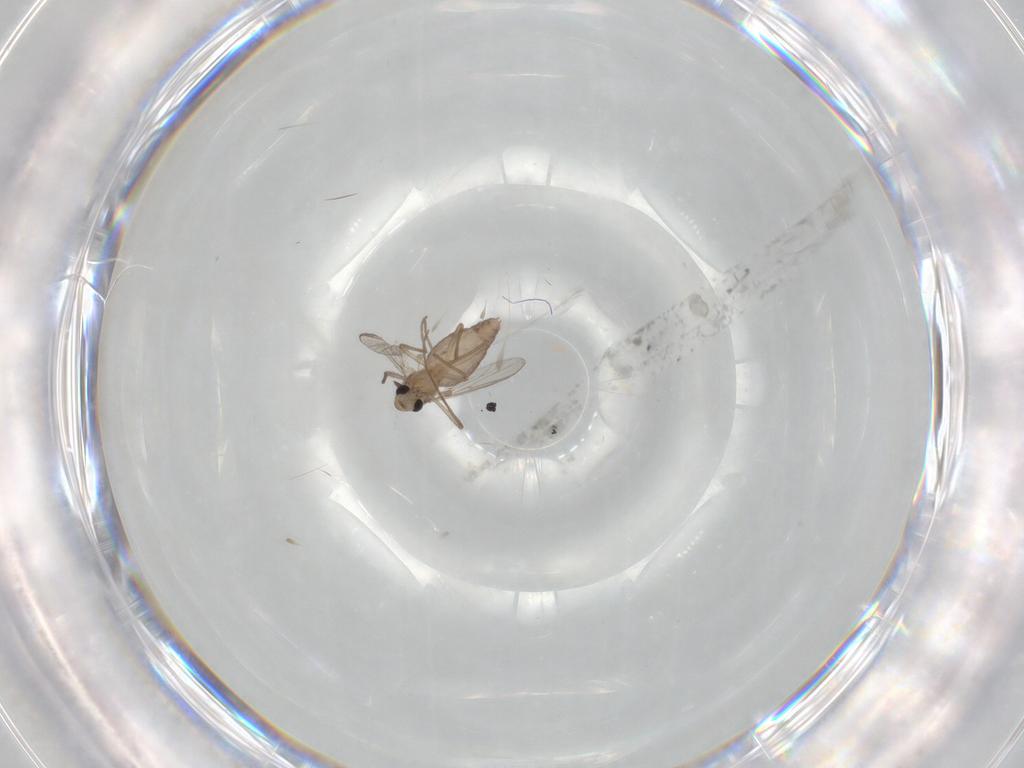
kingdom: Animalia
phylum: Arthropoda
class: Insecta
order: Diptera
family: Chironomidae
